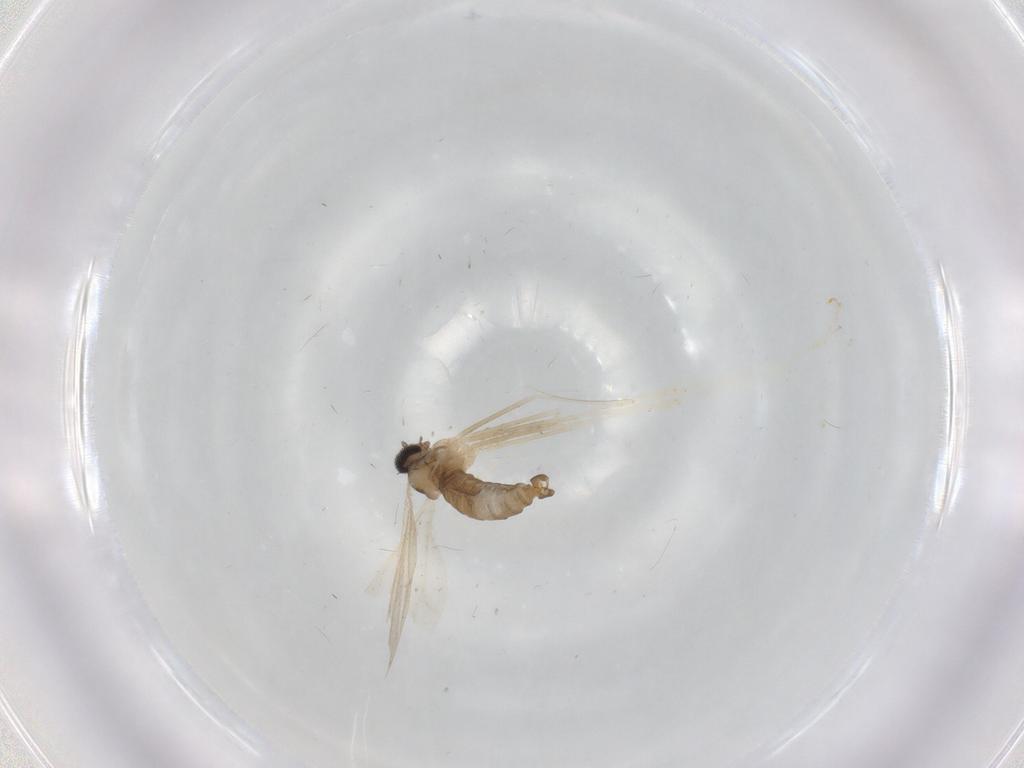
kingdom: Animalia
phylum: Arthropoda
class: Insecta
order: Diptera
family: Cecidomyiidae
